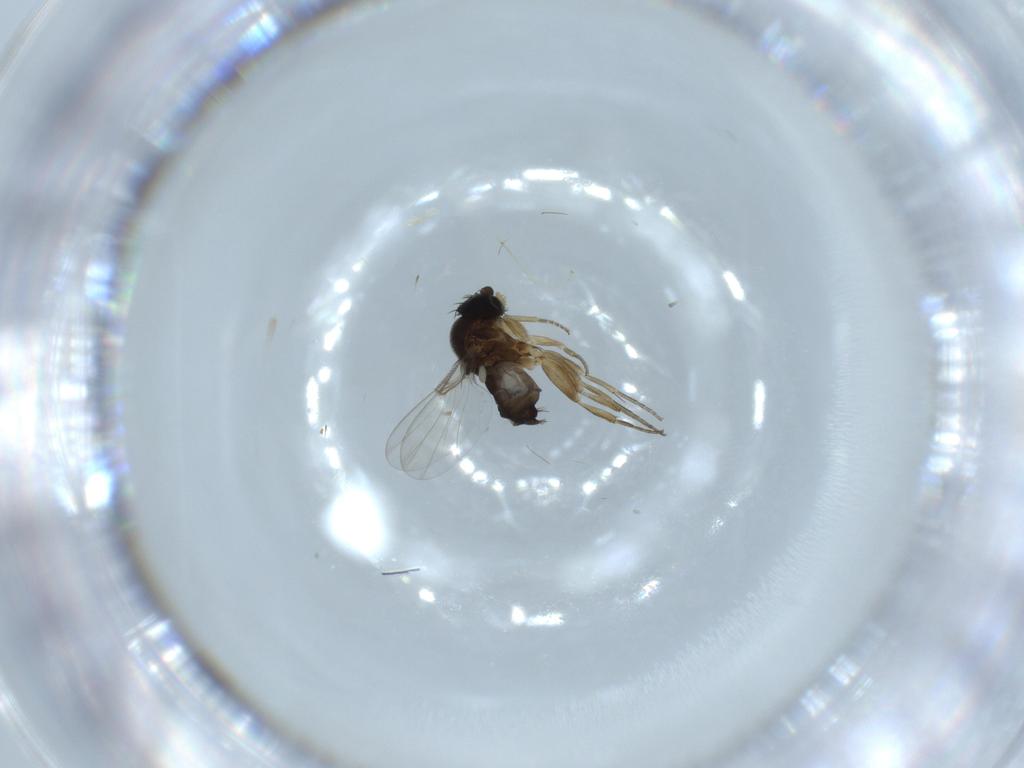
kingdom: Animalia
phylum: Arthropoda
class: Insecta
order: Diptera
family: Cecidomyiidae
